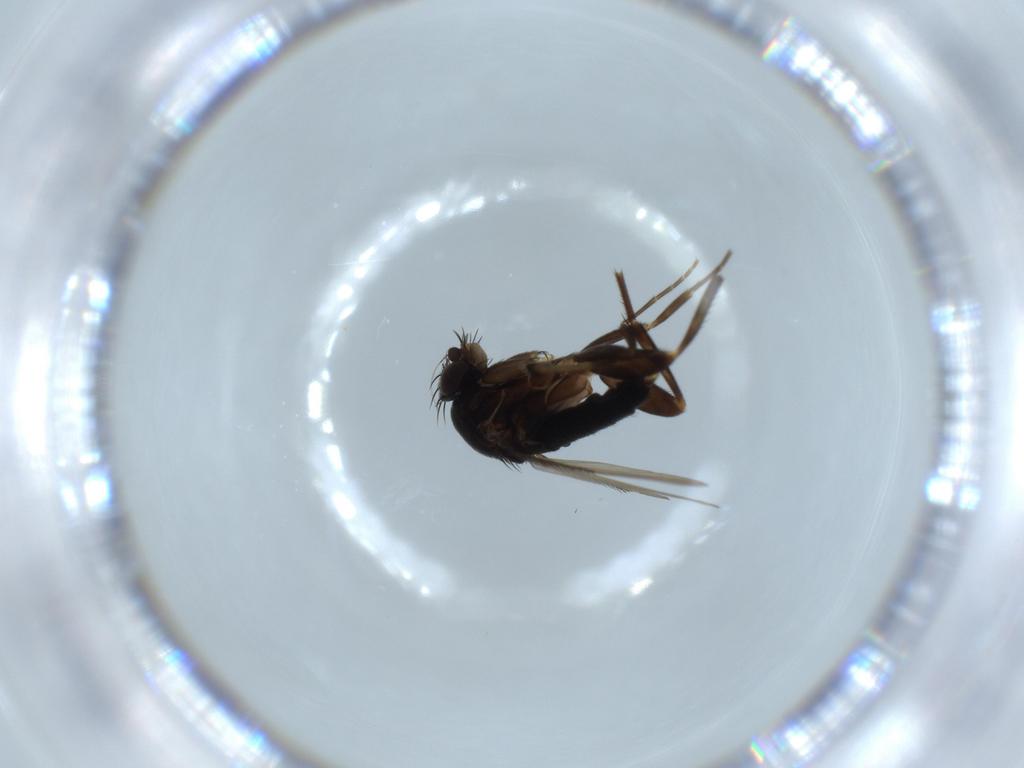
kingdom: Animalia
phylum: Arthropoda
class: Insecta
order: Diptera
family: Phoridae
